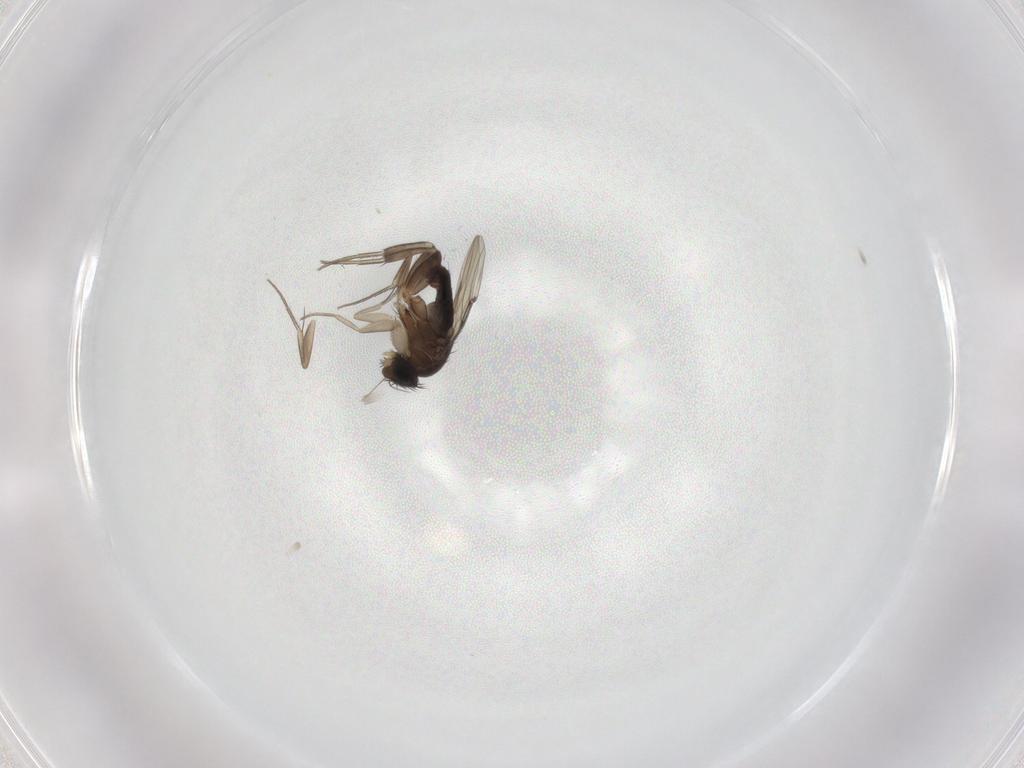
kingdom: Animalia
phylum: Arthropoda
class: Insecta
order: Diptera
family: Phoridae
